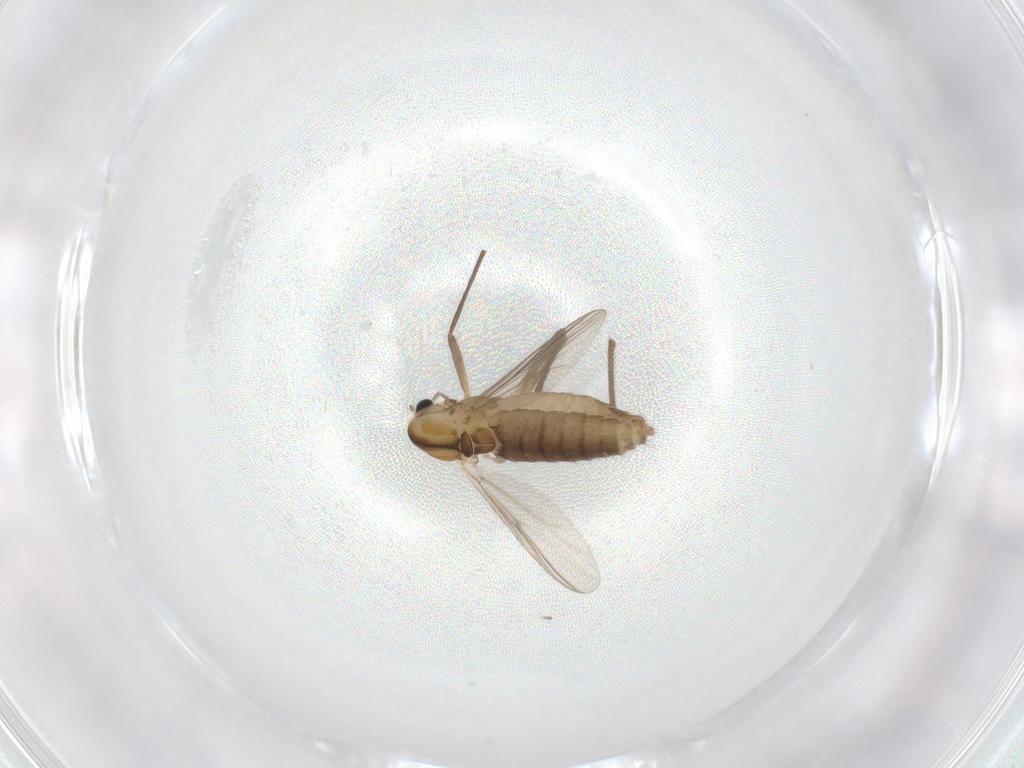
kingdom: Animalia
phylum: Arthropoda
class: Insecta
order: Diptera
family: Chironomidae
